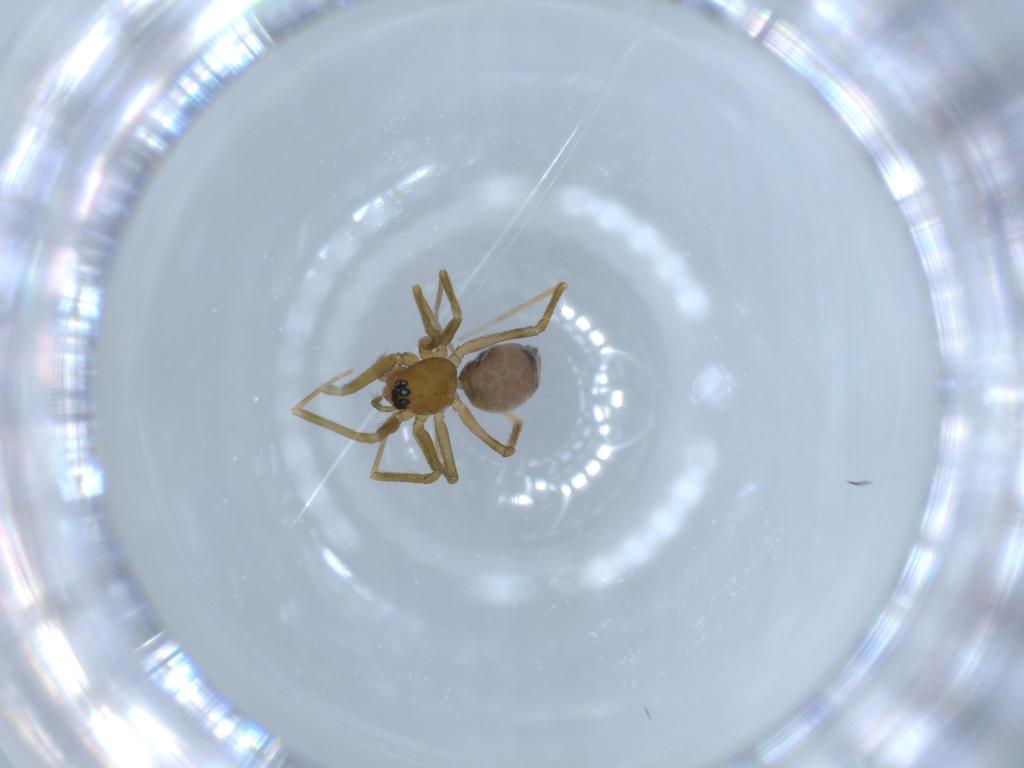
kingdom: Animalia
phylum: Arthropoda
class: Arachnida
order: Araneae
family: Linyphiidae
